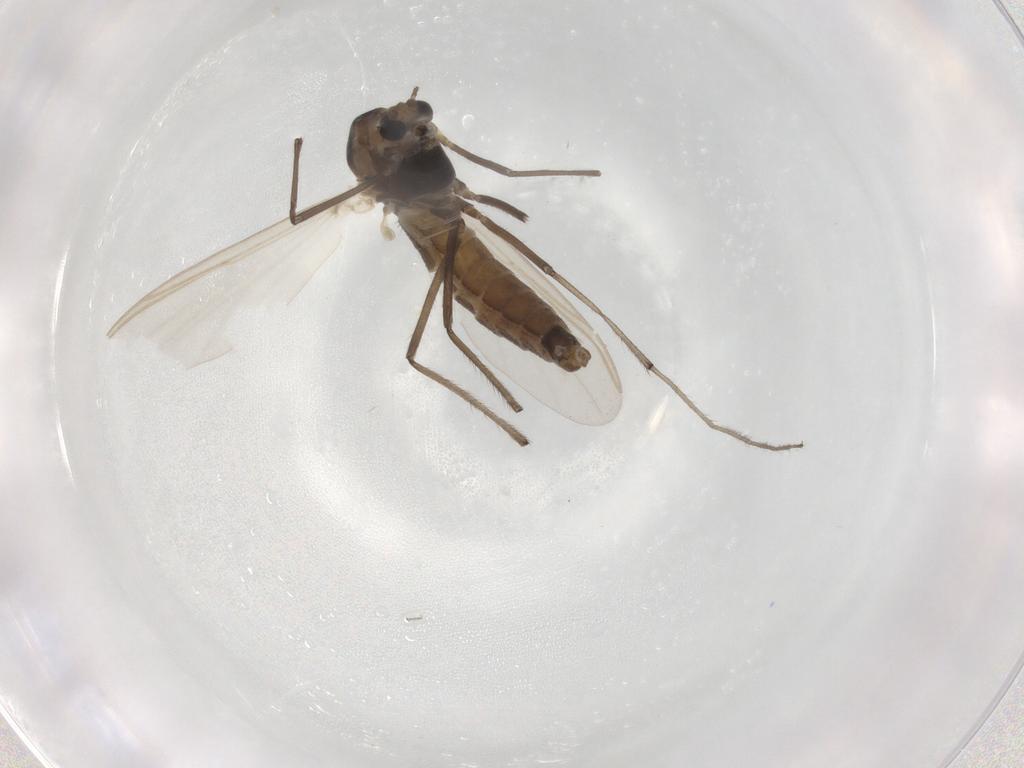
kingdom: Animalia
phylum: Arthropoda
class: Insecta
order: Diptera
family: Chironomidae
